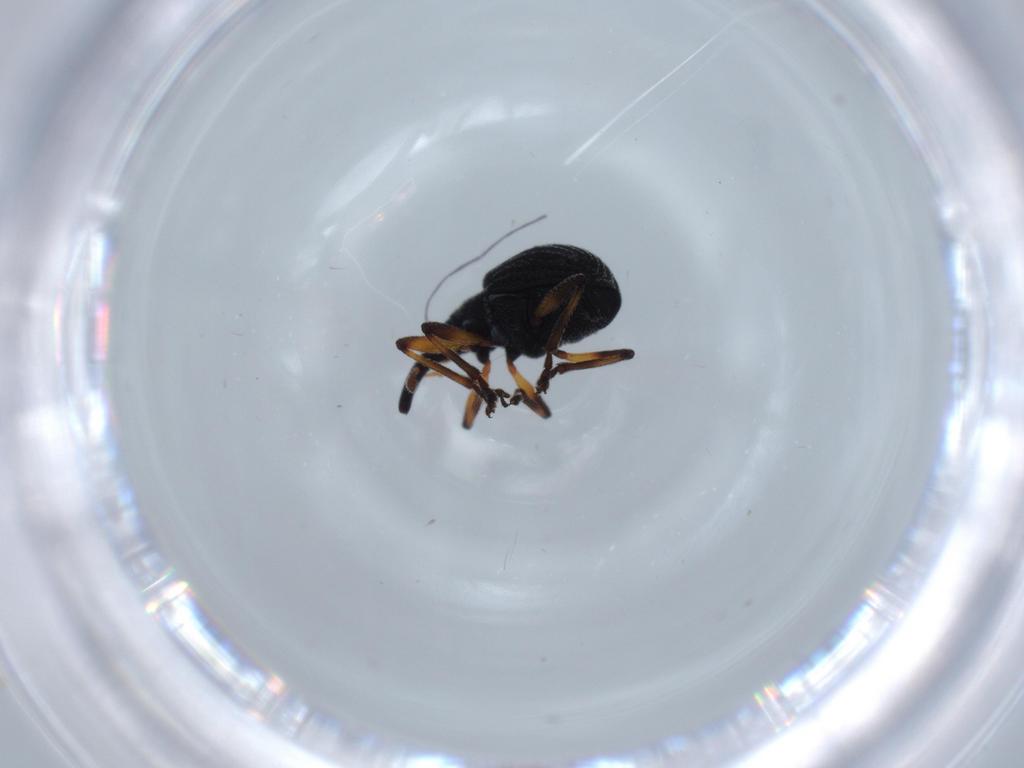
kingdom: Animalia
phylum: Arthropoda
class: Insecta
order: Coleoptera
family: Brentidae
